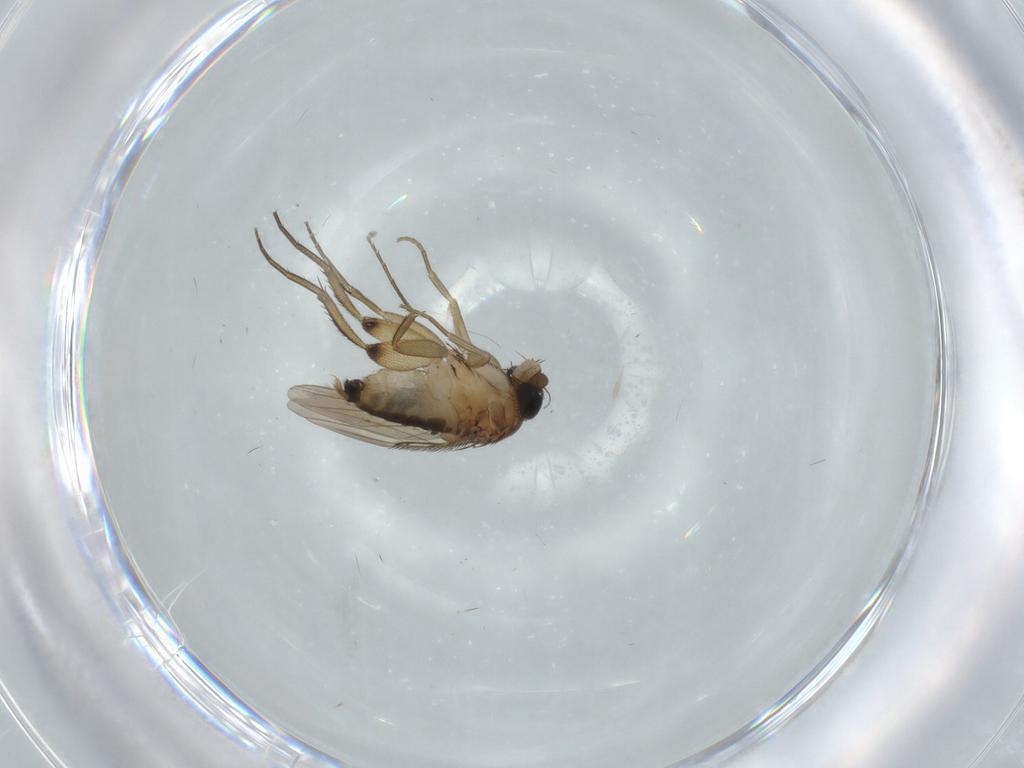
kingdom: Animalia
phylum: Arthropoda
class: Insecta
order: Diptera
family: Phoridae
